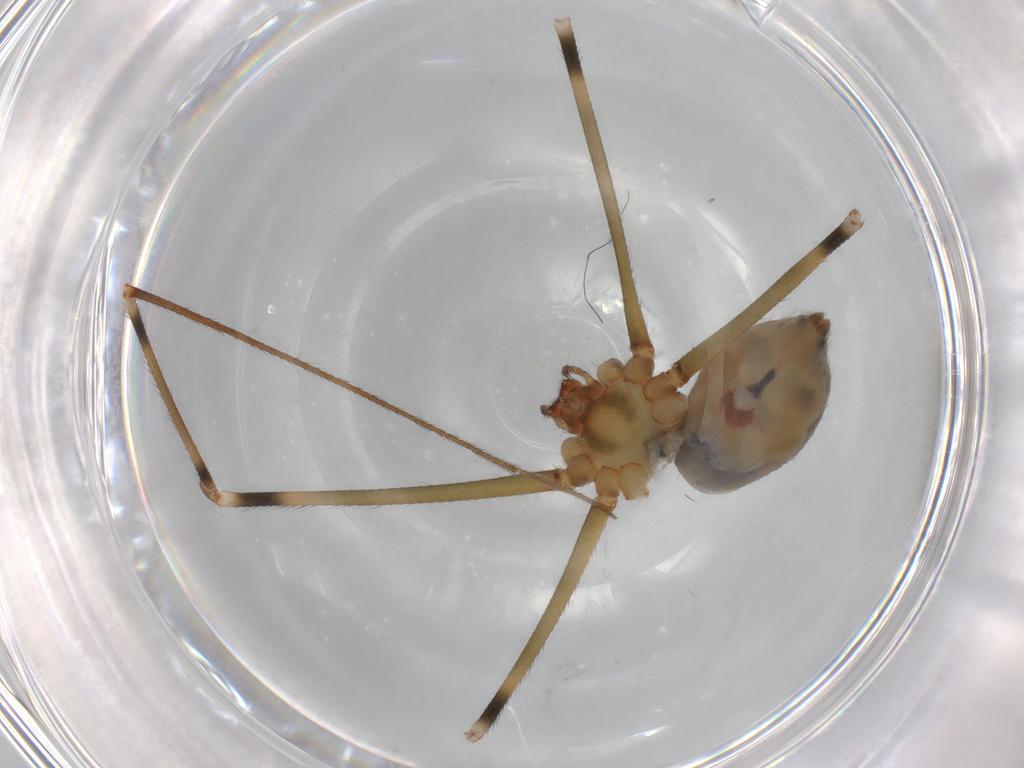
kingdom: Animalia
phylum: Arthropoda
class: Arachnida
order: Araneae
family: Pholcidae
